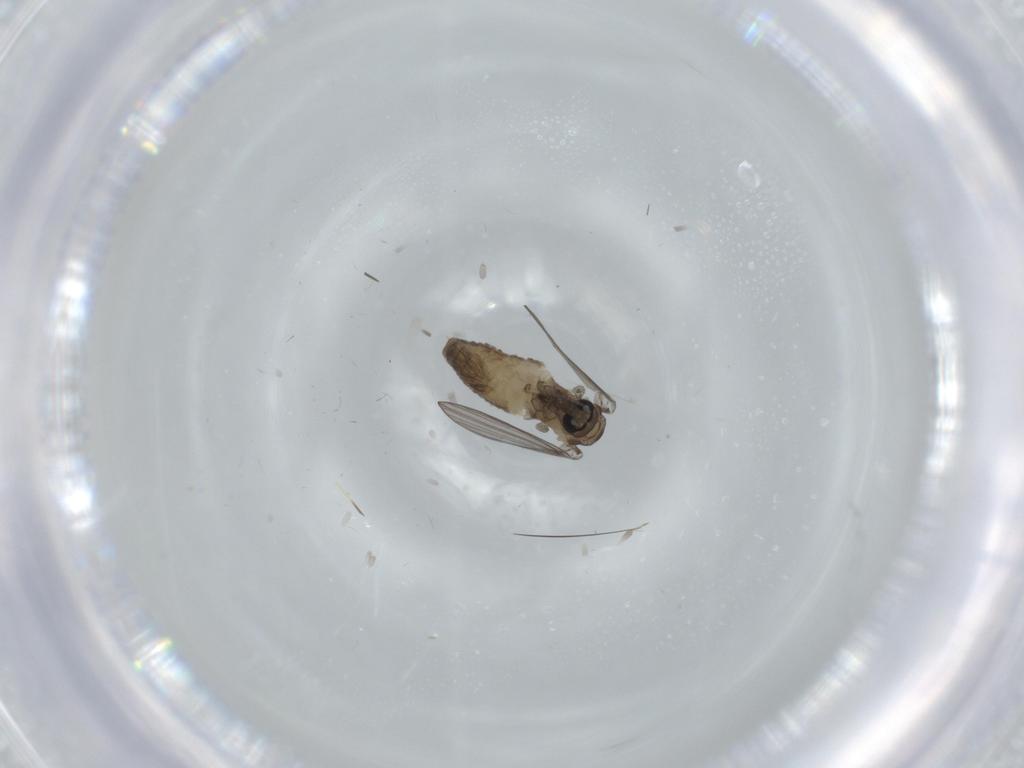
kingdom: Animalia
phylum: Arthropoda
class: Insecta
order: Diptera
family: Psychodidae
